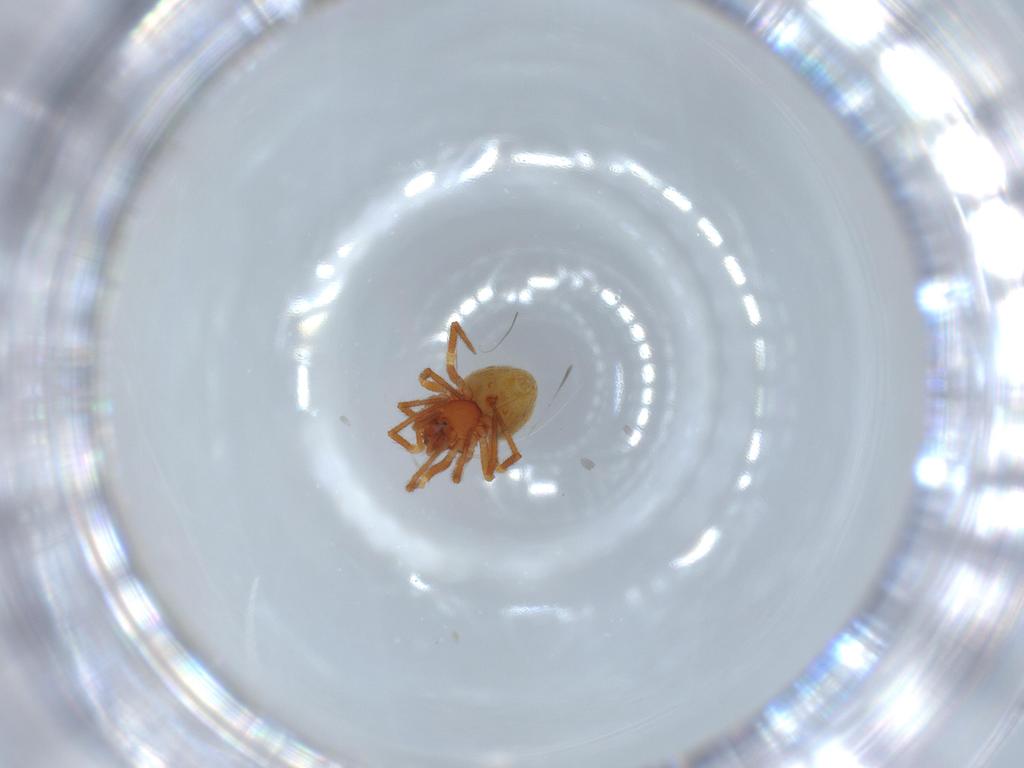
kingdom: Animalia
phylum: Arthropoda
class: Arachnida
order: Araneae
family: Theridiidae
